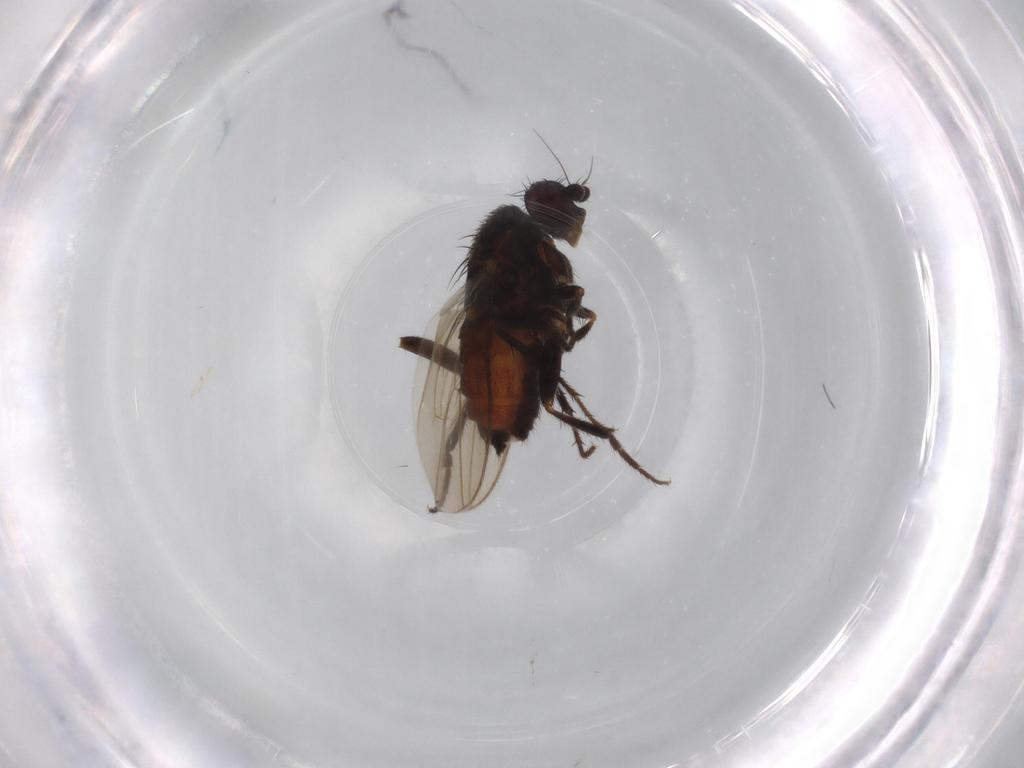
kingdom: Animalia
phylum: Arthropoda
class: Insecta
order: Diptera
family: Sphaeroceridae
